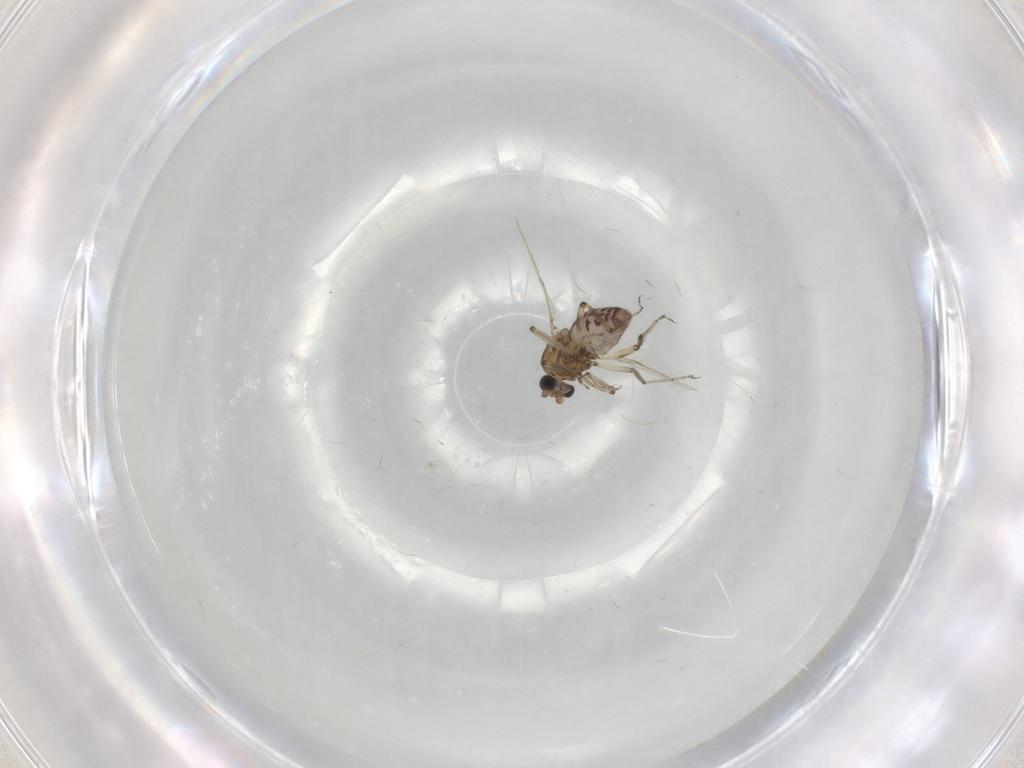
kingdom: Animalia
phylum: Arthropoda
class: Insecta
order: Diptera
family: Ceratopogonidae
